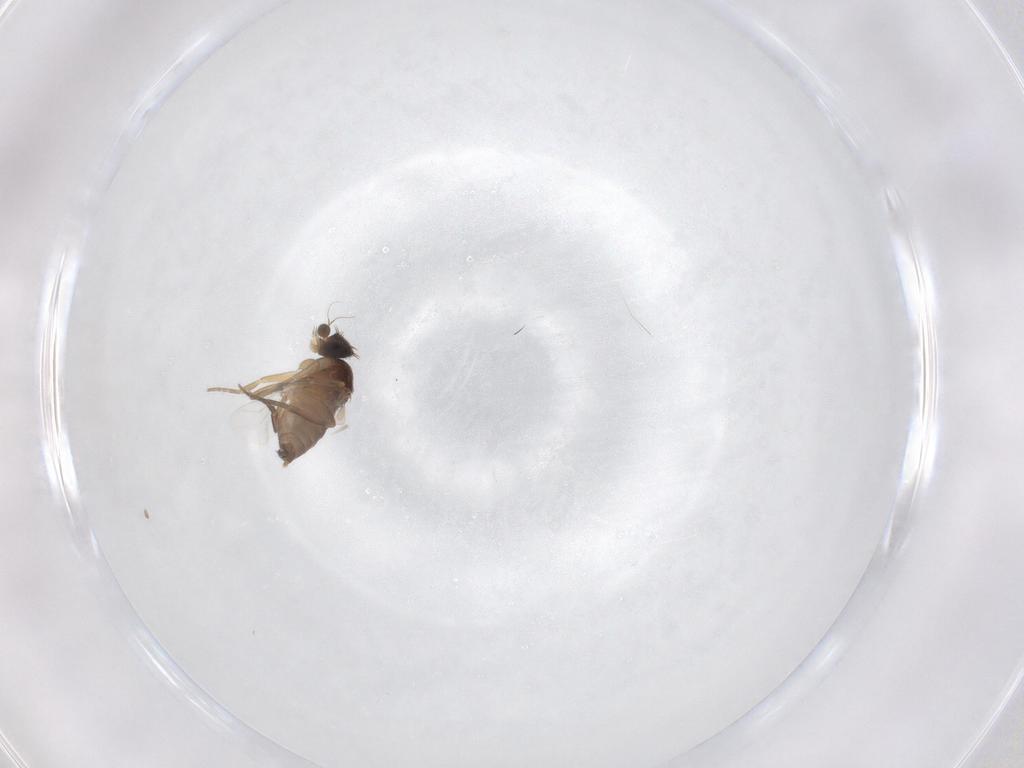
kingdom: Animalia
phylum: Arthropoda
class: Insecta
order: Diptera
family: Phoridae
